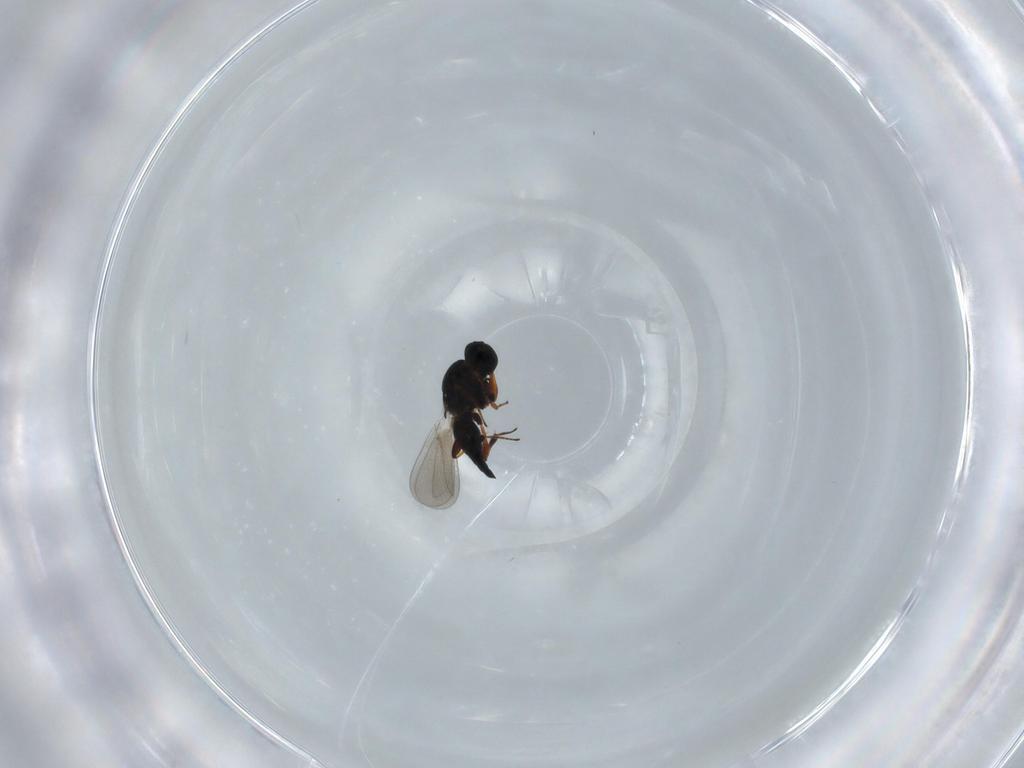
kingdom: Animalia
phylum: Arthropoda
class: Insecta
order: Hymenoptera
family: Platygastridae
